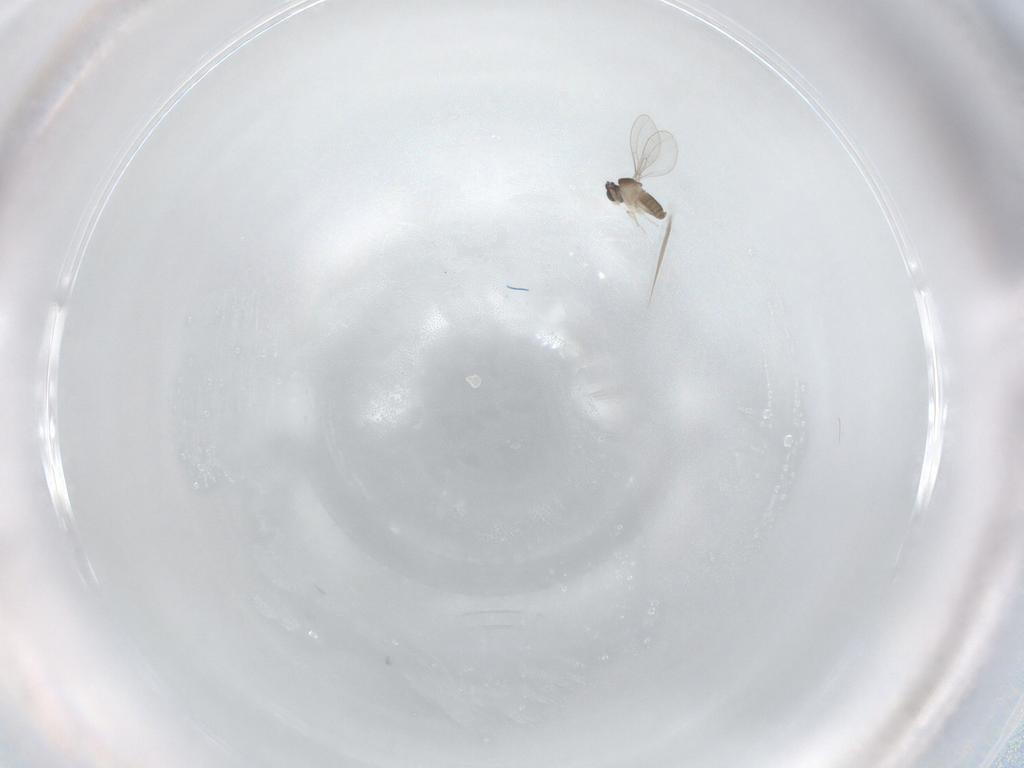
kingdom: Animalia
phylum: Arthropoda
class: Insecta
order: Diptera
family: Cecidomyiidae
